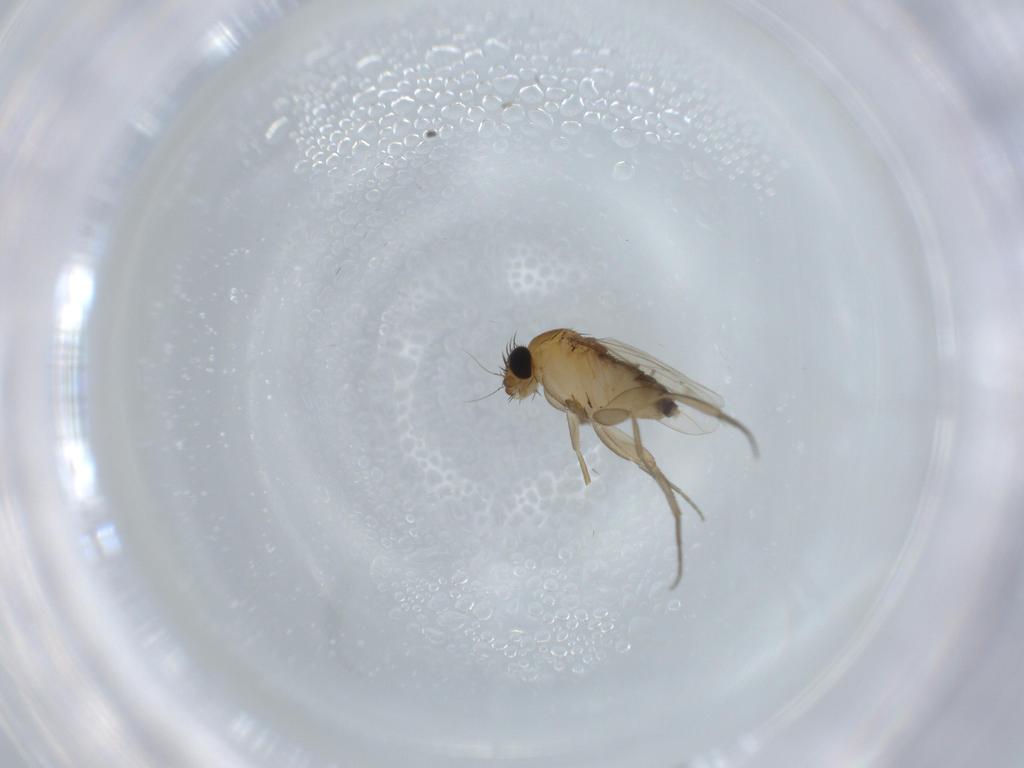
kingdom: Animalia
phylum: Arthropoda
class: Insecta
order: Diptera
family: Phoridae
